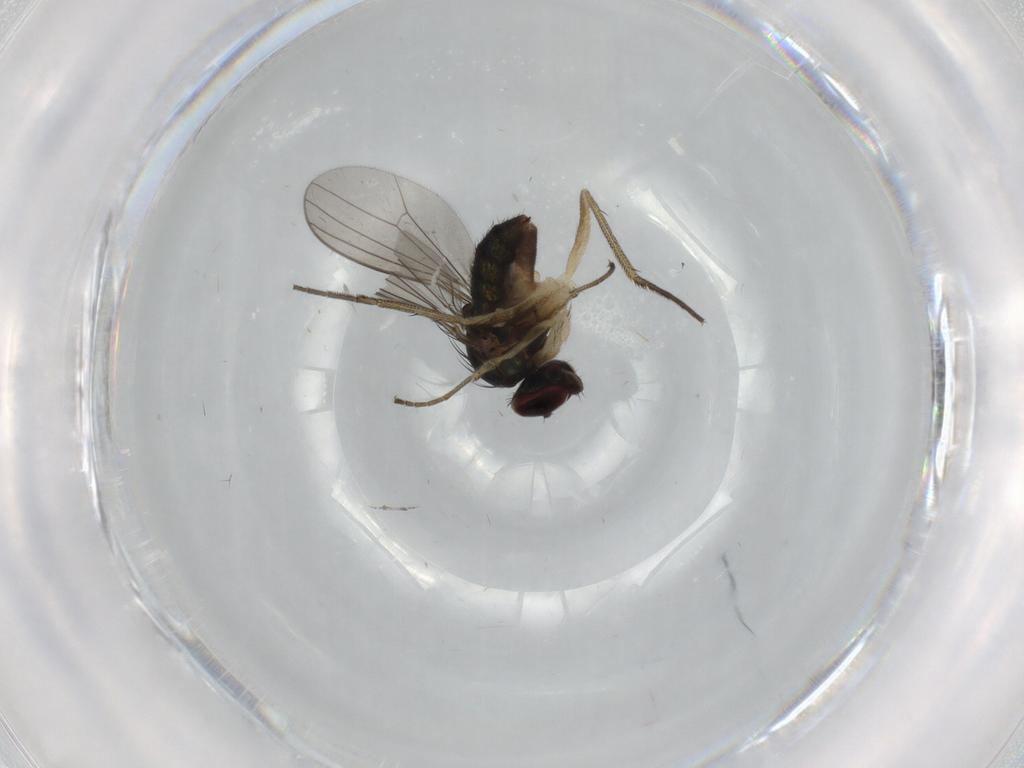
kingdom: Animalia
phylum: Arthropoda
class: Insecta
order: Diptera
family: Dolichopodidae
